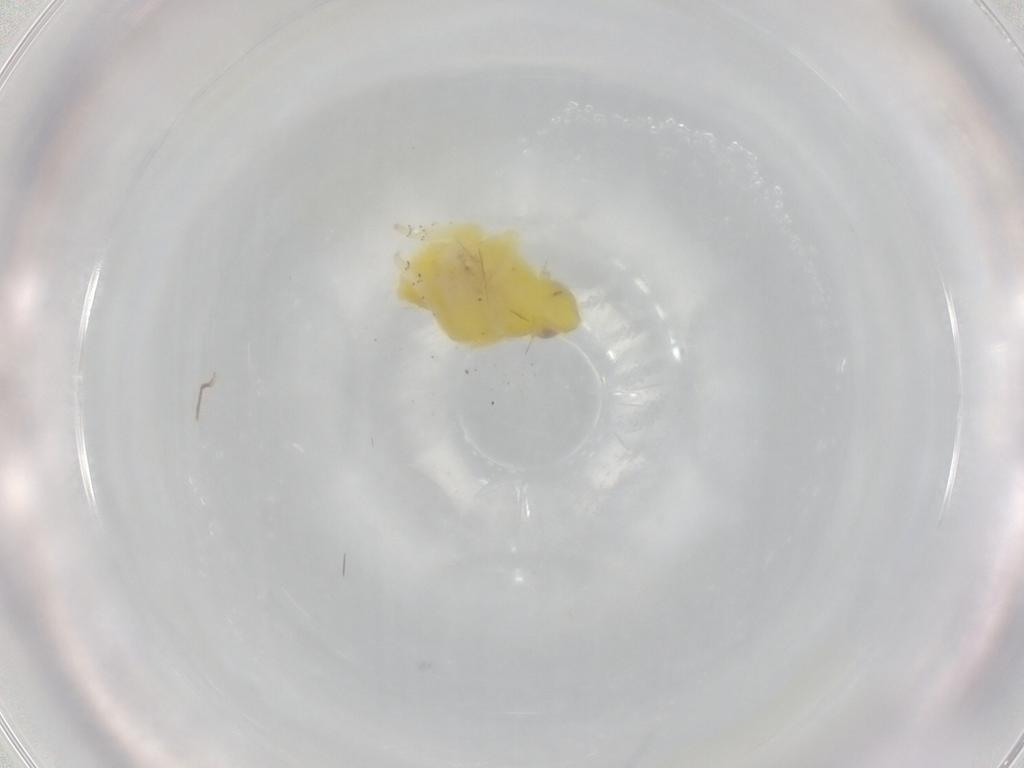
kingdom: Animalia
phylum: Arthropoda
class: Insecta
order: Hemiptera
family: Tropiduchidae
